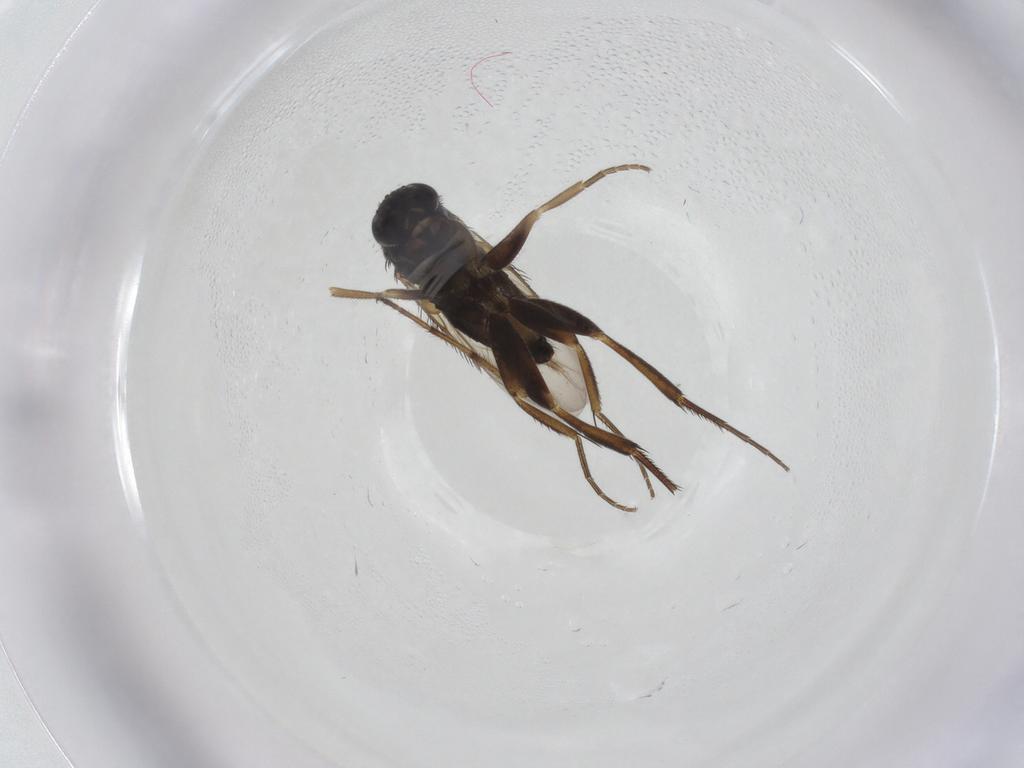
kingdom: Animalia
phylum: Arthropoda
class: Insecta
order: Diptera
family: Phoridae
